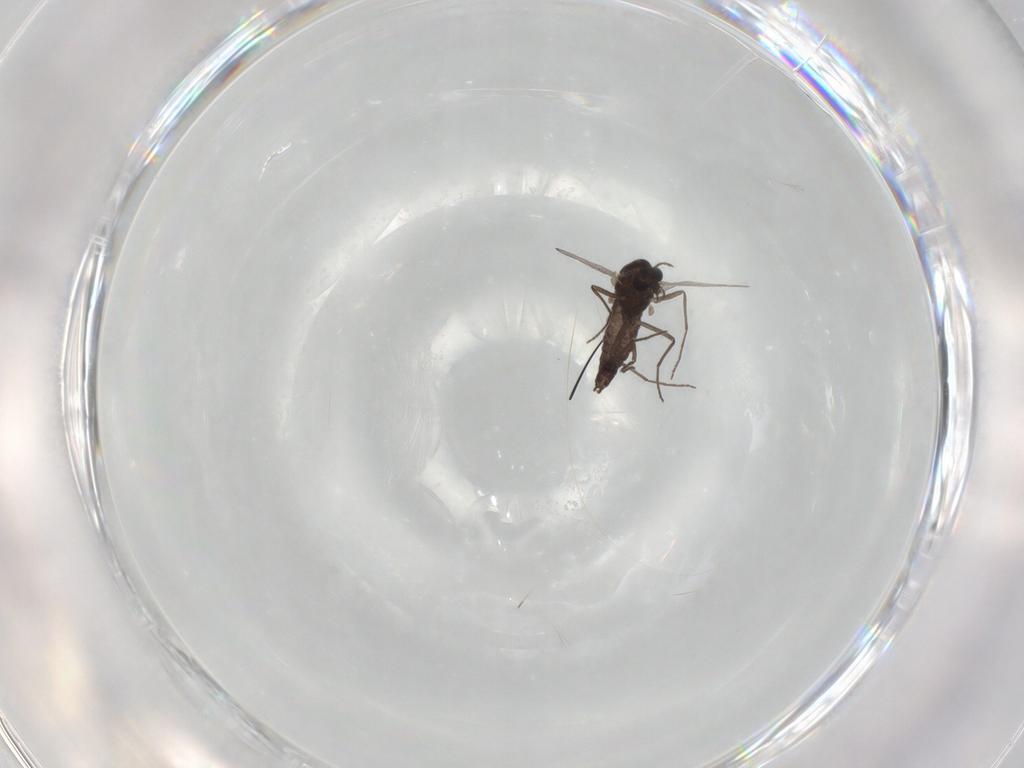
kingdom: Animalia
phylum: Arthropoda
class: Insecta
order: Diptera
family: Chironomidae
